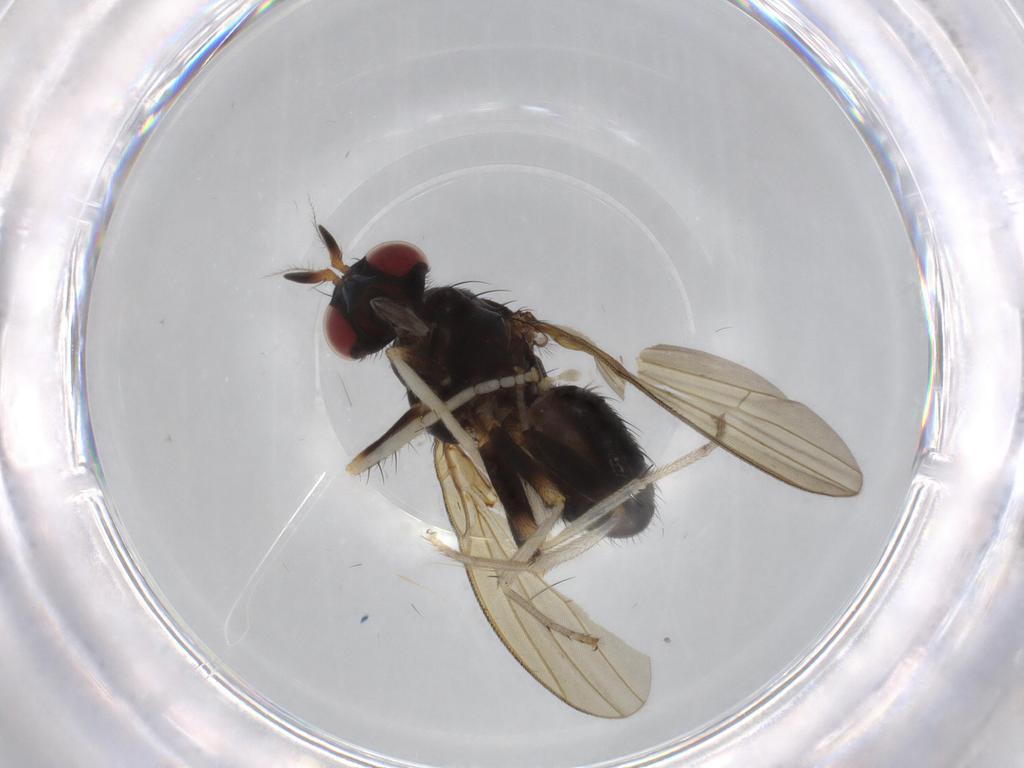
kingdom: Animalia
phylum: Arthropoda
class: Insecta
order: Diptera
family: Lauxaniidae
